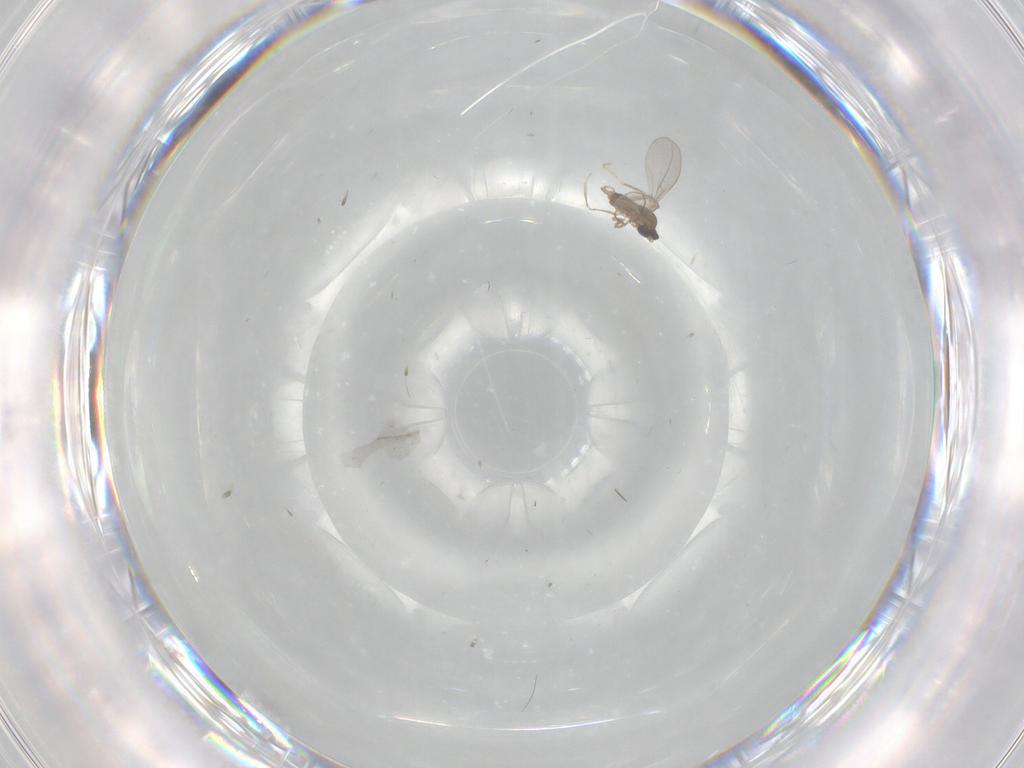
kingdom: Animalia
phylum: Arthropoda
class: Insecta
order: Diptera
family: Cecidomyiidae
